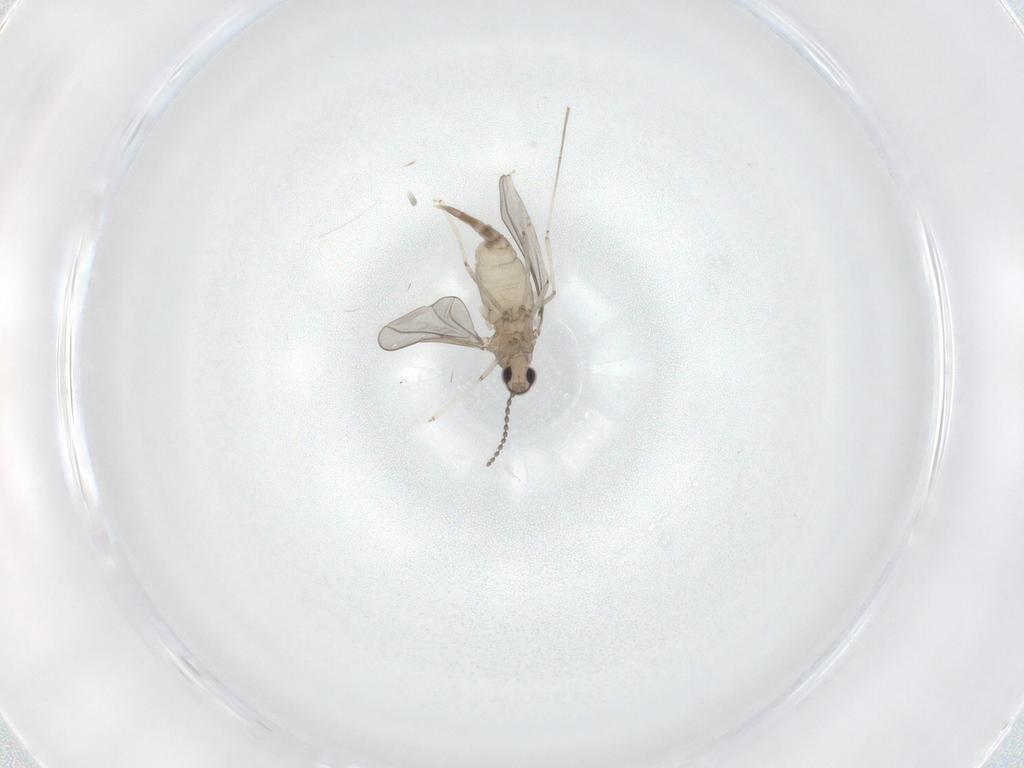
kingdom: Animalia
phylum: Arthropoda
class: Insecta
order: Diptera
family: Cecidomyiidae
